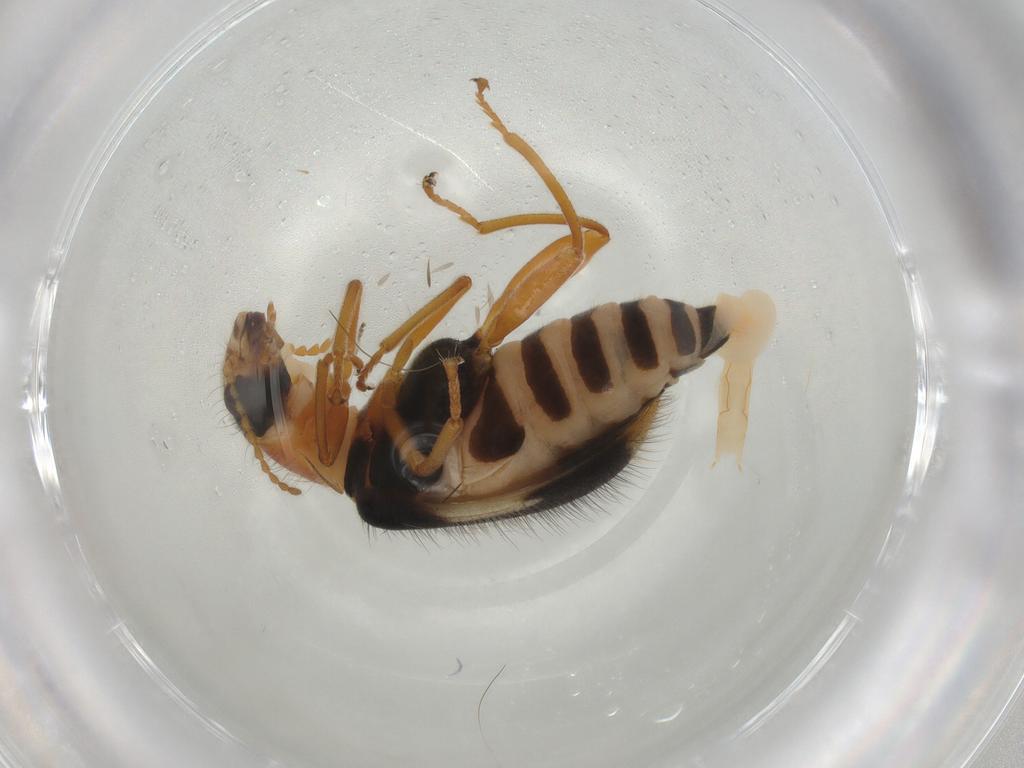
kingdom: Animalia
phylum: Arthropoda
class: Insecta
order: Coleoptera
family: Melyridae
